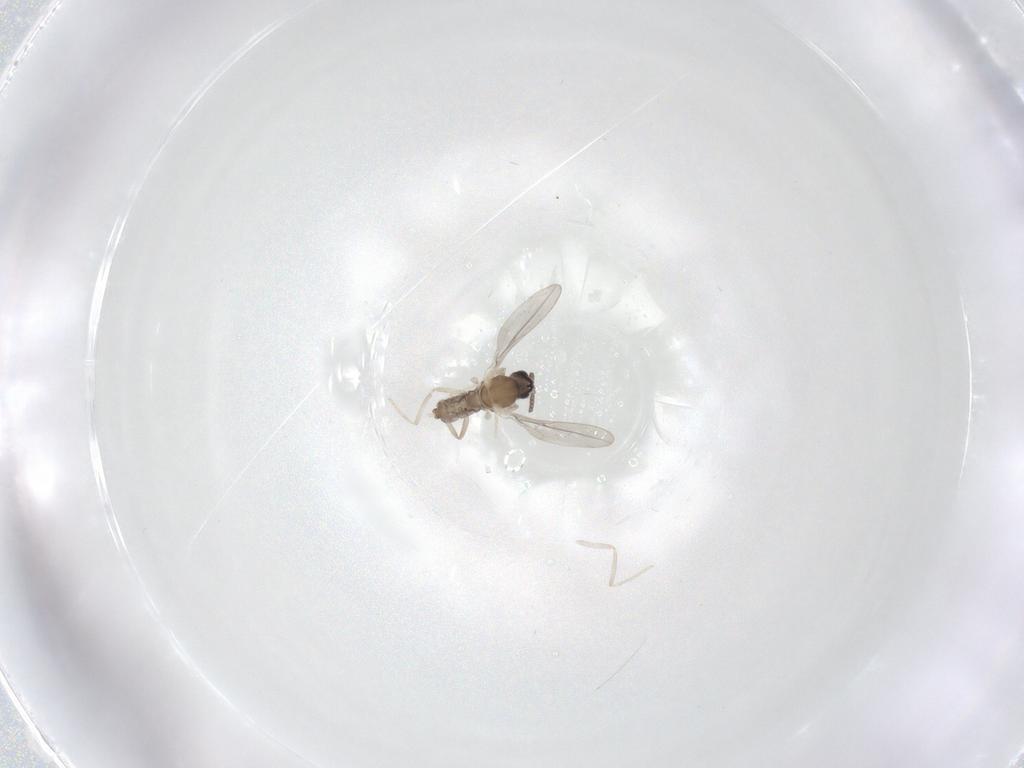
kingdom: Animalia
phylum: Arthropoda
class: Insecta
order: Diptera
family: Cecidomyiidae
